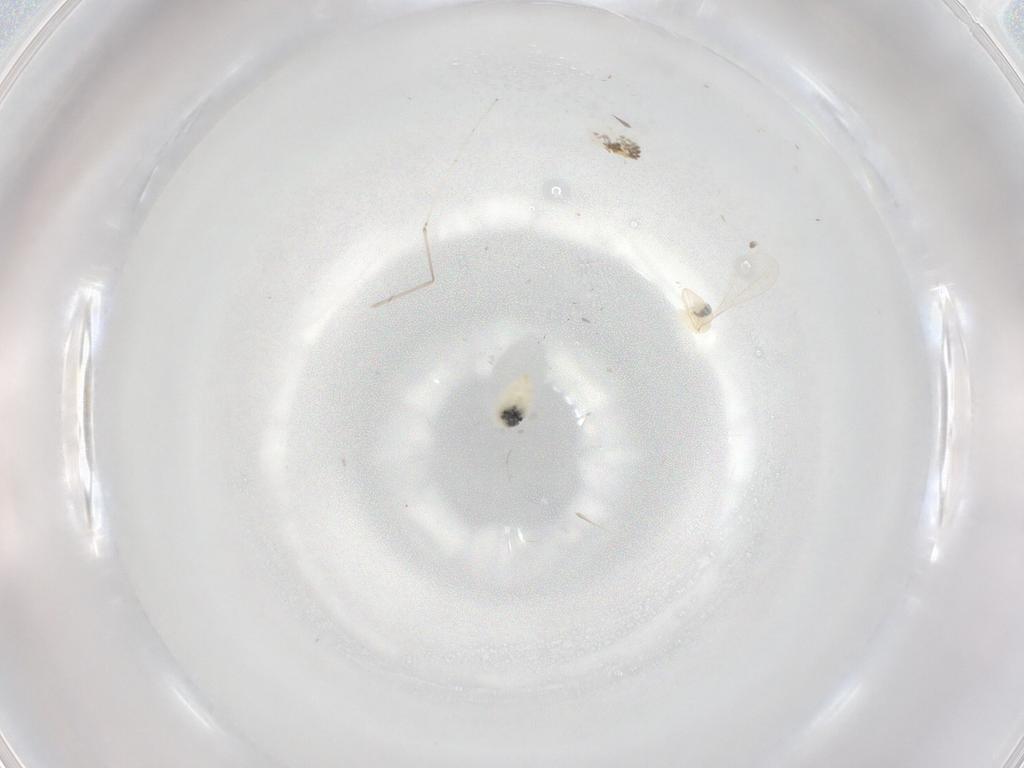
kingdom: Animalia
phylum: Arthropoda
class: Insecta
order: Diptera
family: Cecidomyiidae
